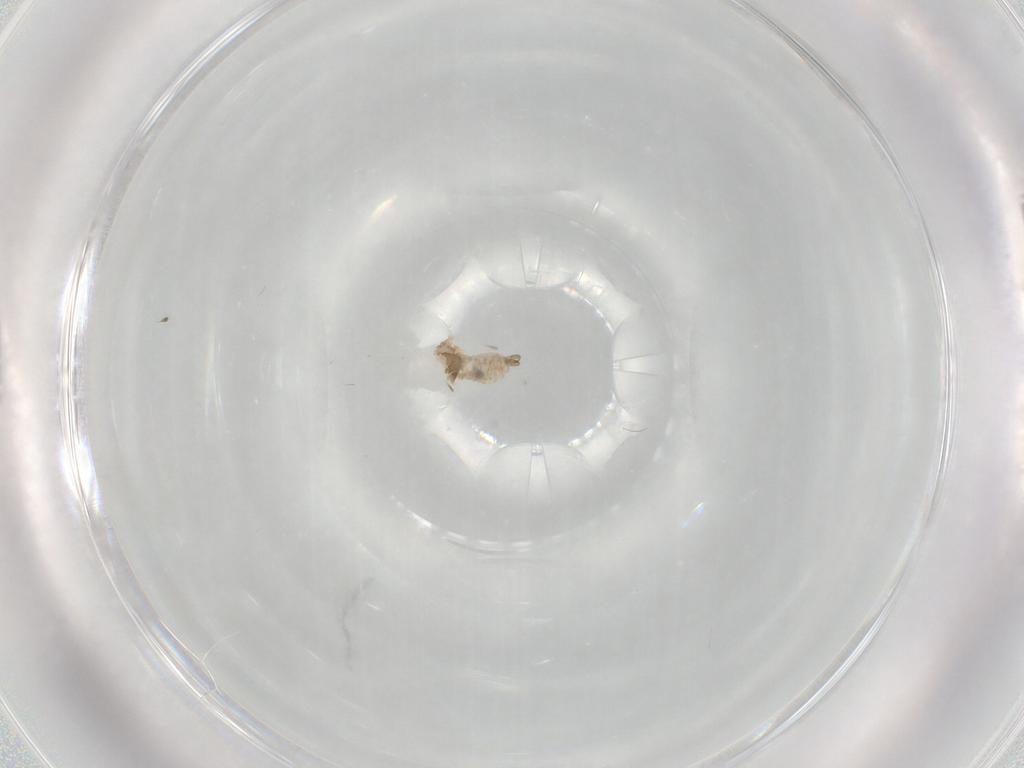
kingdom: Animalia
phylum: Arthropoda
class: Insecta
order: Diptera
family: Cecidomyiidae
